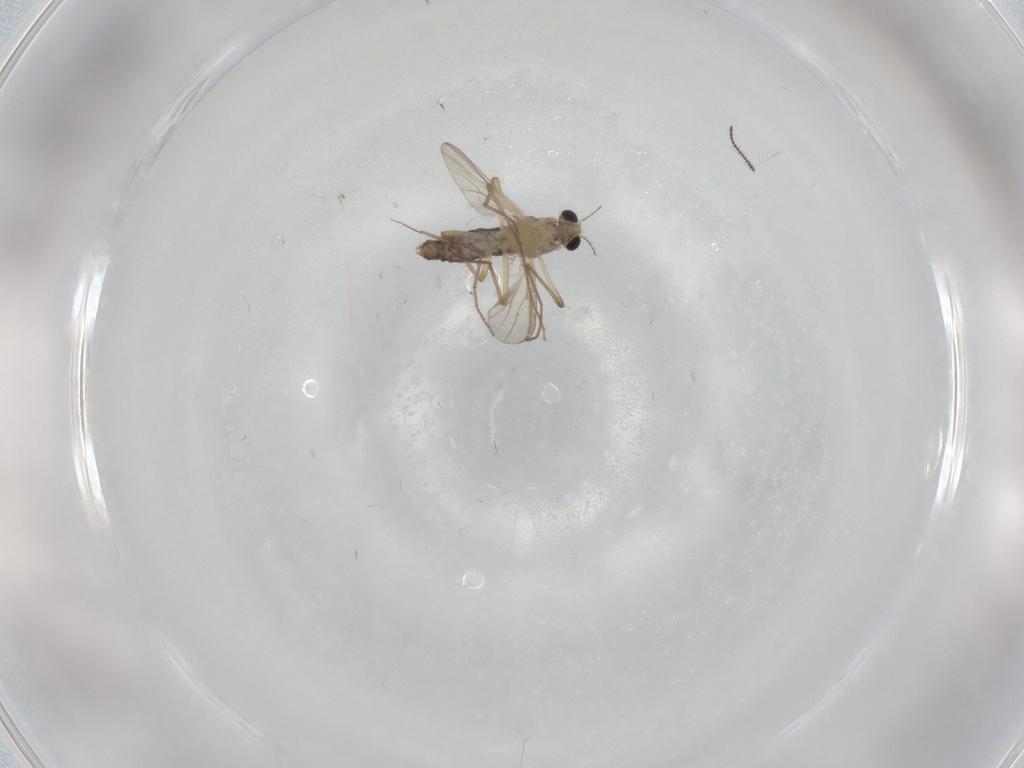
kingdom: Animalia
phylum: Arthropoda
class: Insecta
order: Diptera
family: Chironomidae
